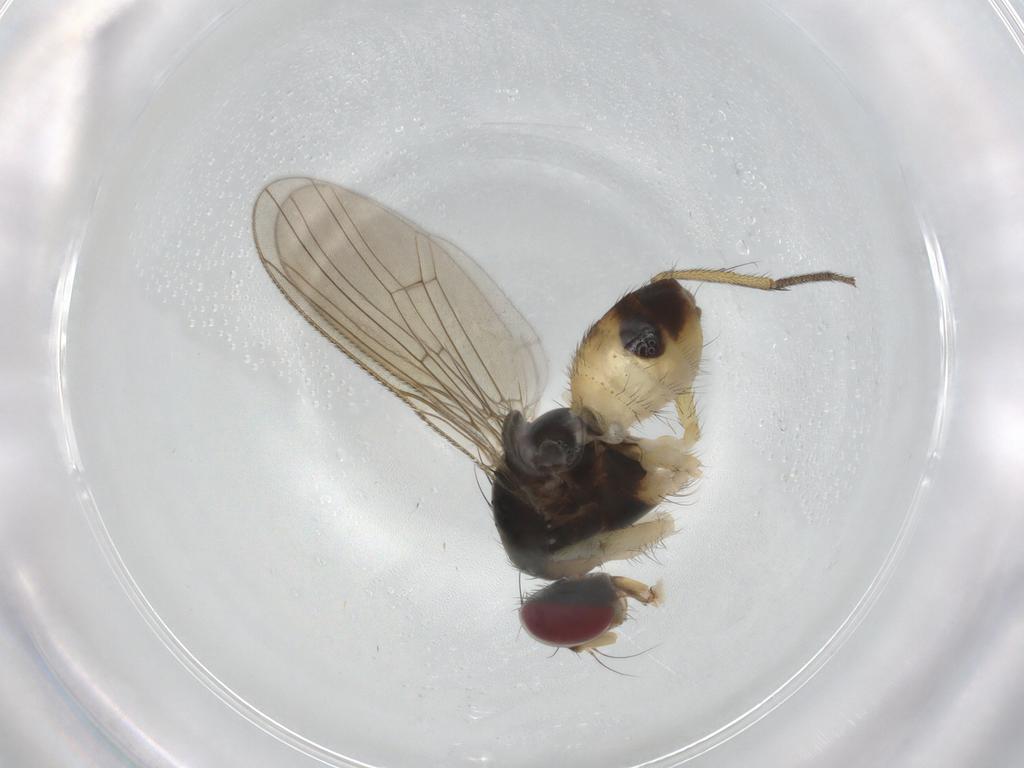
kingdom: Animalia
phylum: Arthropoda
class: Insecta
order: Diptera
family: Muscidae
